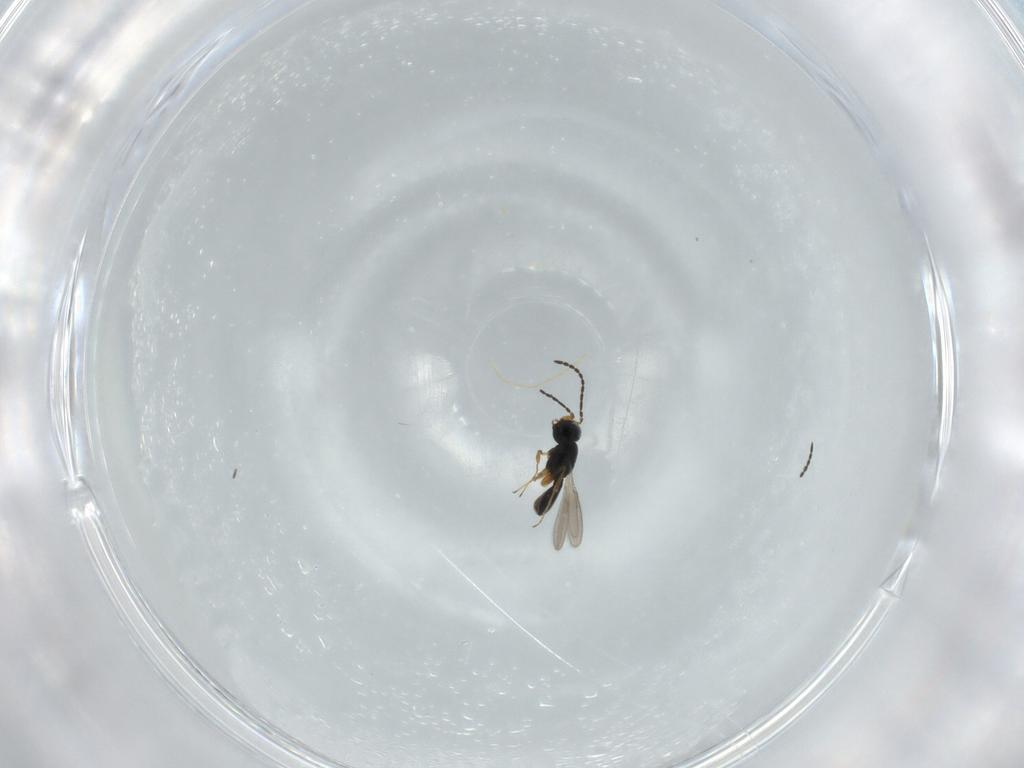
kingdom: Animalia
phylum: Arthropoda
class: Insecta
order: Hymenoptera
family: Scelionidae
